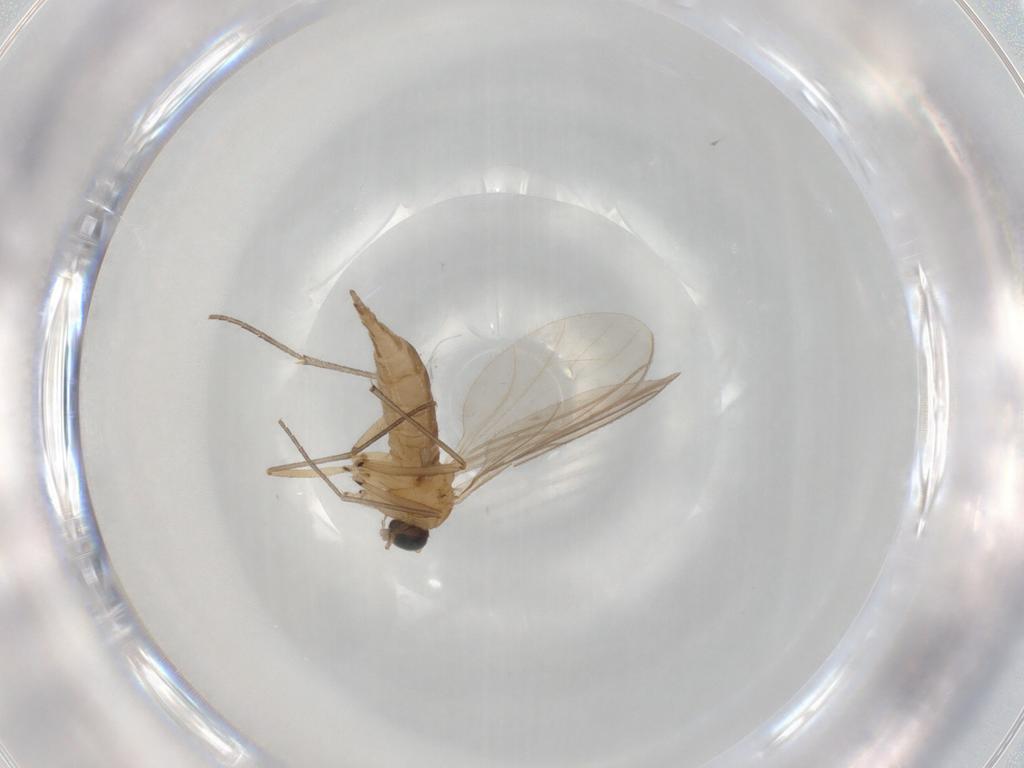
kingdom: Animalia
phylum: Arthropoda
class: Insecta
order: Diptera
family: Sciaridae
